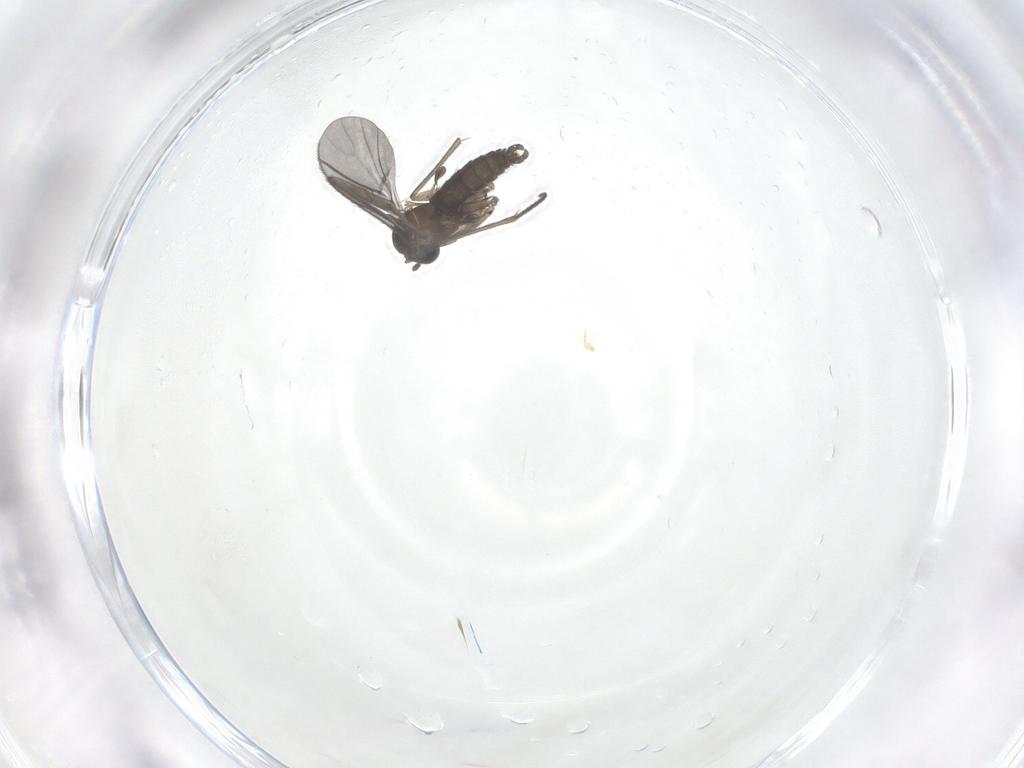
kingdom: Animalia
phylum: Arthropoda
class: Insecta
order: Diptera
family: Sciaridae
